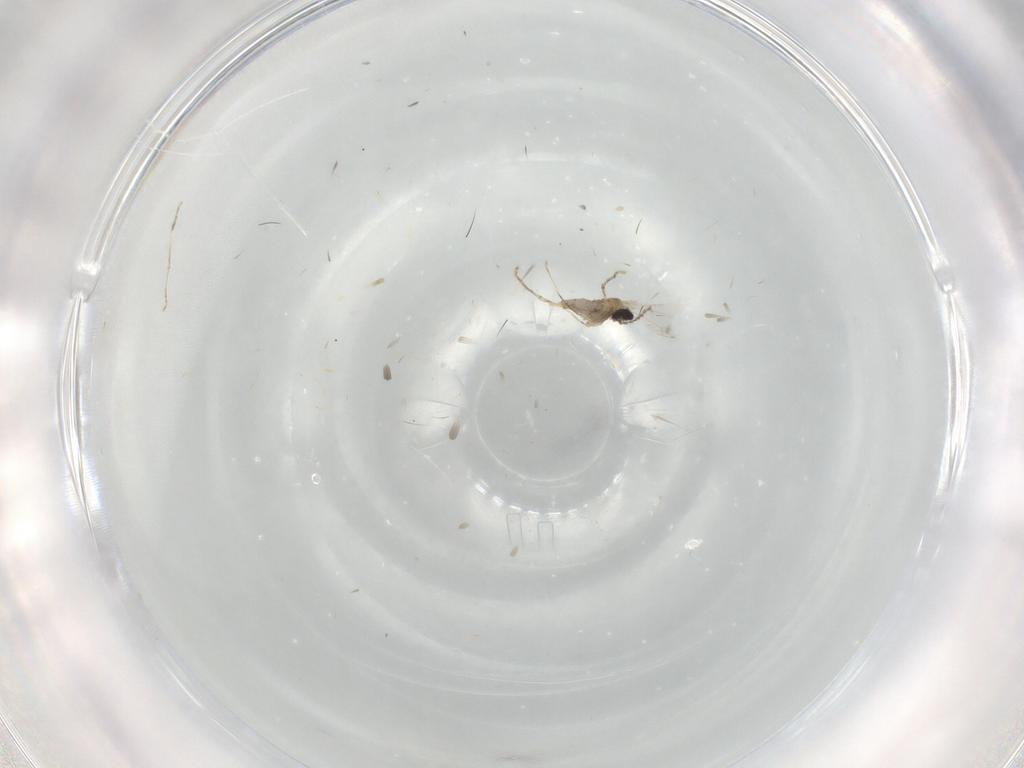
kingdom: Animalia
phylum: Arthropoda
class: Insecta
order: Diptera
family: Cecidomyiidae
